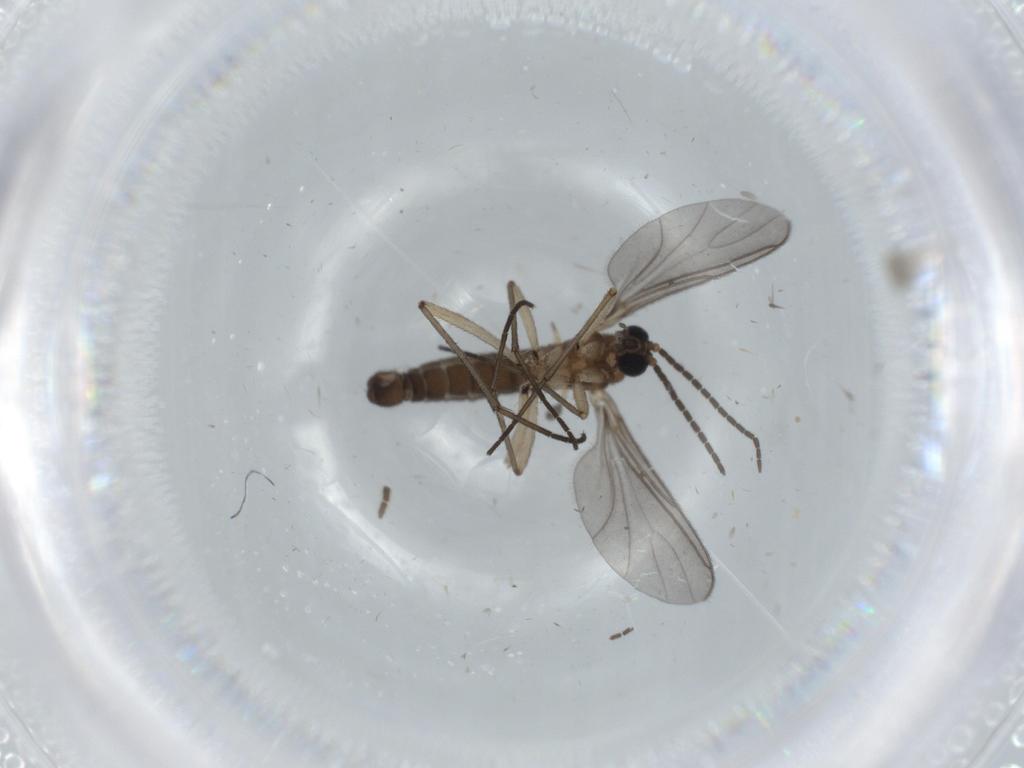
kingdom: Animalia
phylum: Arthropoda
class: Insecta
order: Diptera
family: Sciaridae
